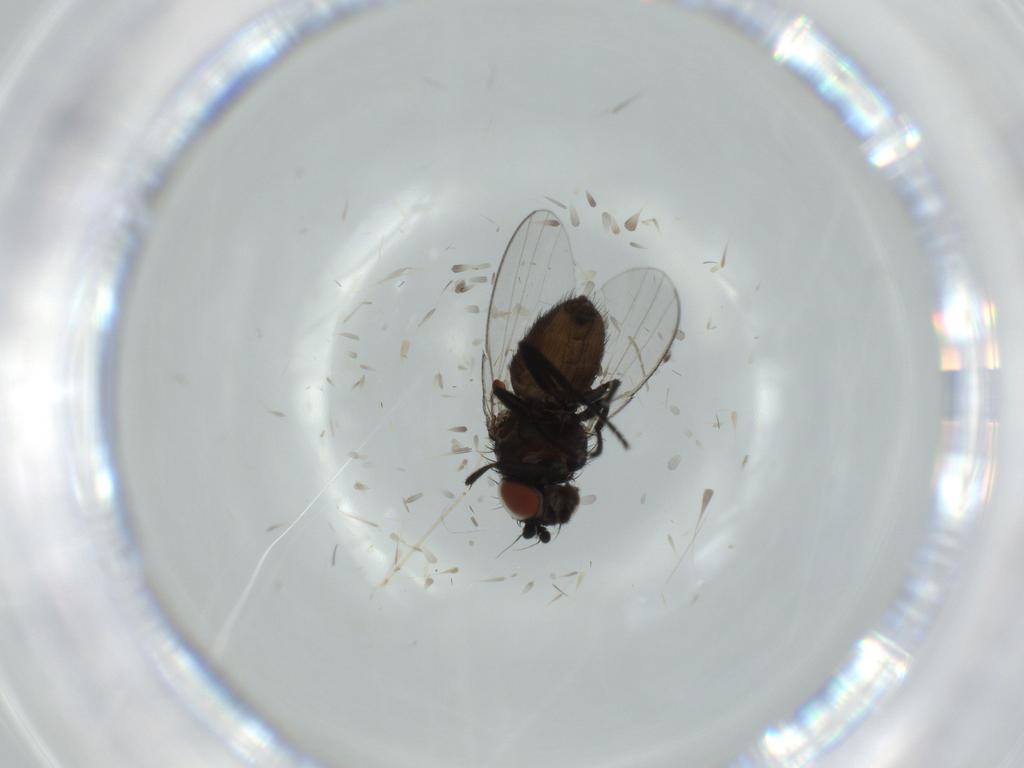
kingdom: Animalia
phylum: Arthropoda
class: Insecta
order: Diptera
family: Milichiidae
